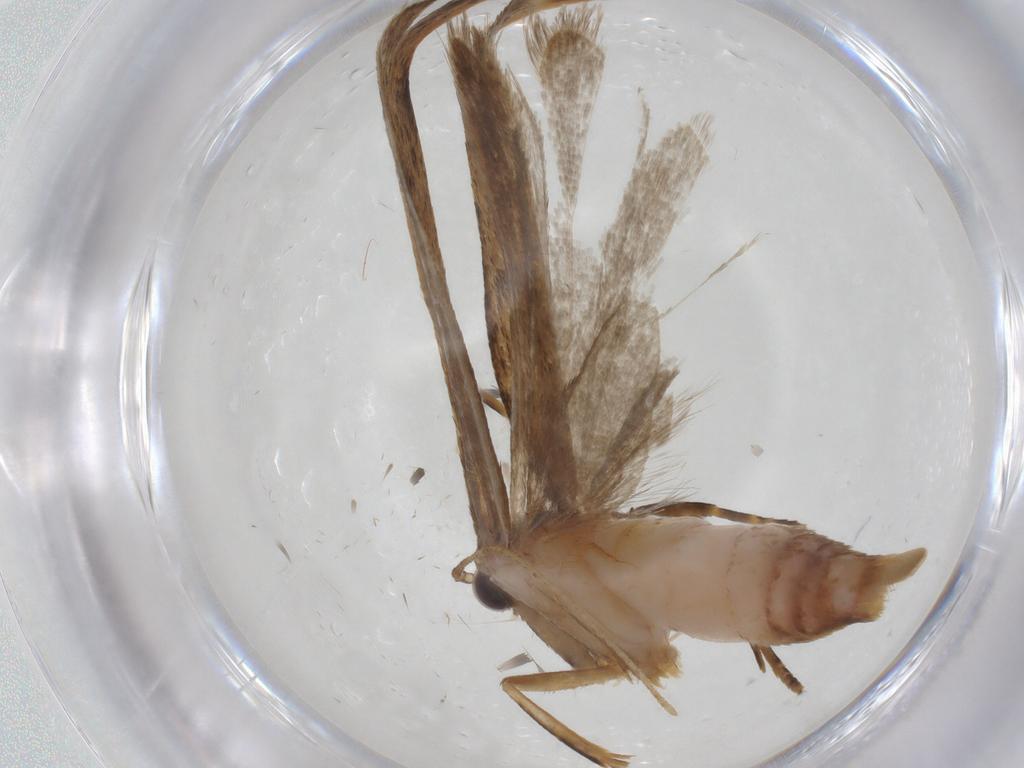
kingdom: Animalia
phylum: Arthropoda
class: Insecta
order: Lepidoptera
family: Autostichidae
